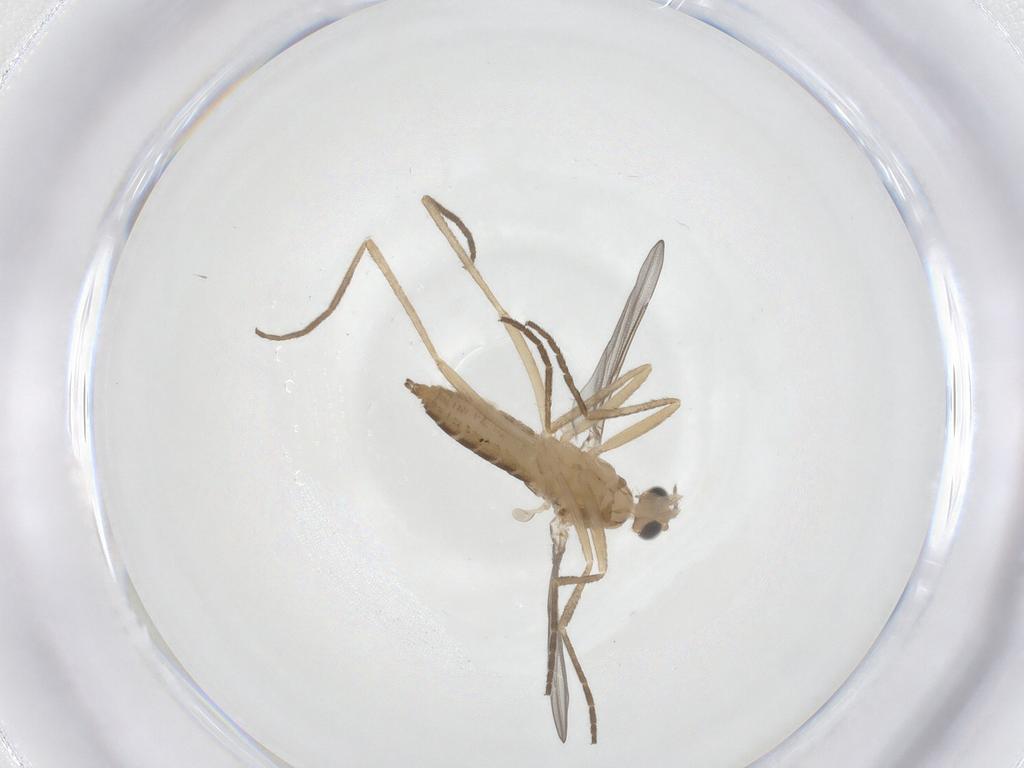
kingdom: Animalia
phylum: Arthropoda
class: Insecta
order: Diptera
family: Cecidomyiidae
